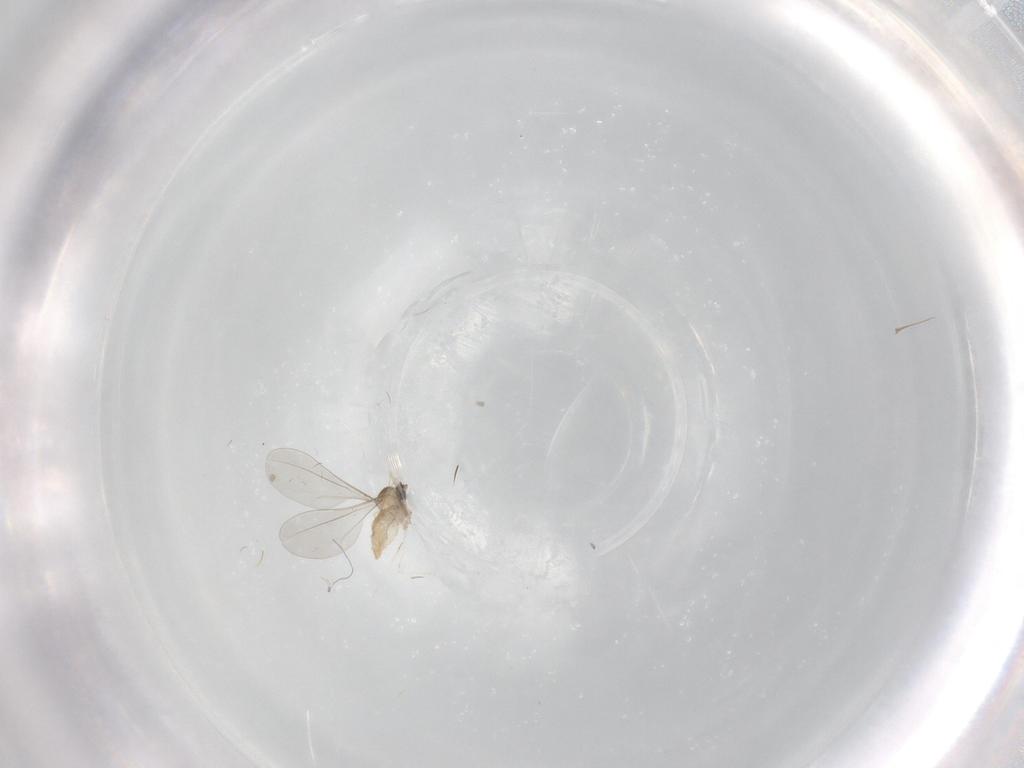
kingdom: Animalia
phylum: Arthropoda
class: Insecta
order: Diptera
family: Cecidomyiidae
